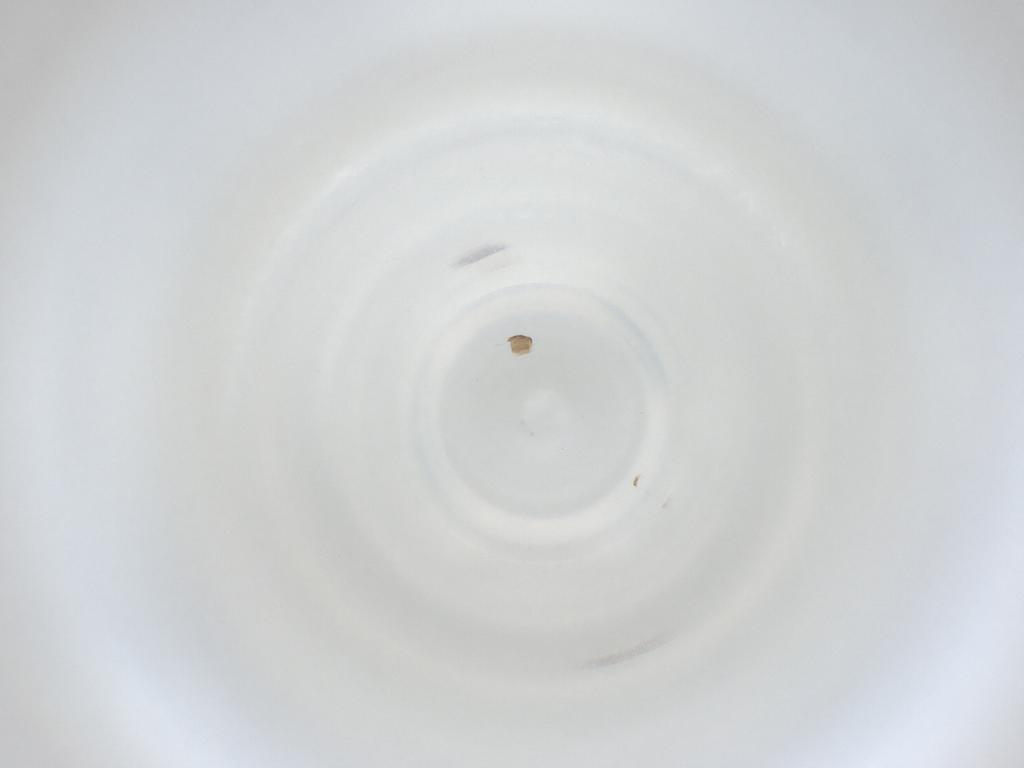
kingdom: Animalia
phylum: Arthropoda
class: Insecta
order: Diptera
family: Cecidomyiidae
